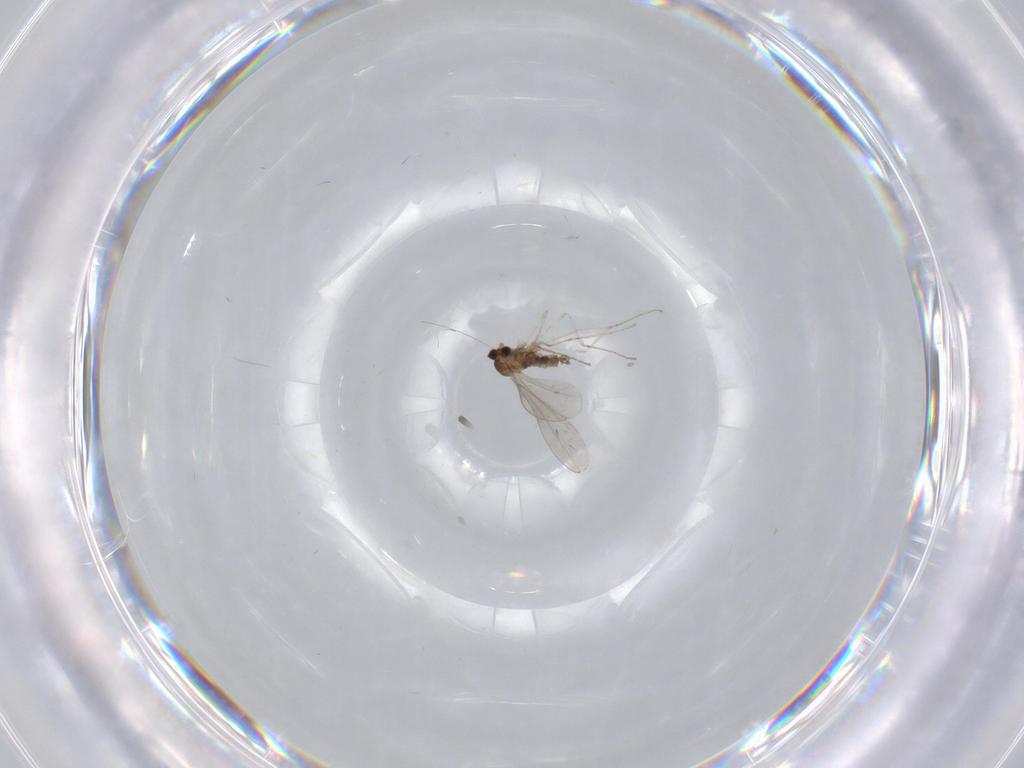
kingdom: Animalia
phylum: Arthropoda
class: Insecta
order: Diptera
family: Cecidomyiidae
